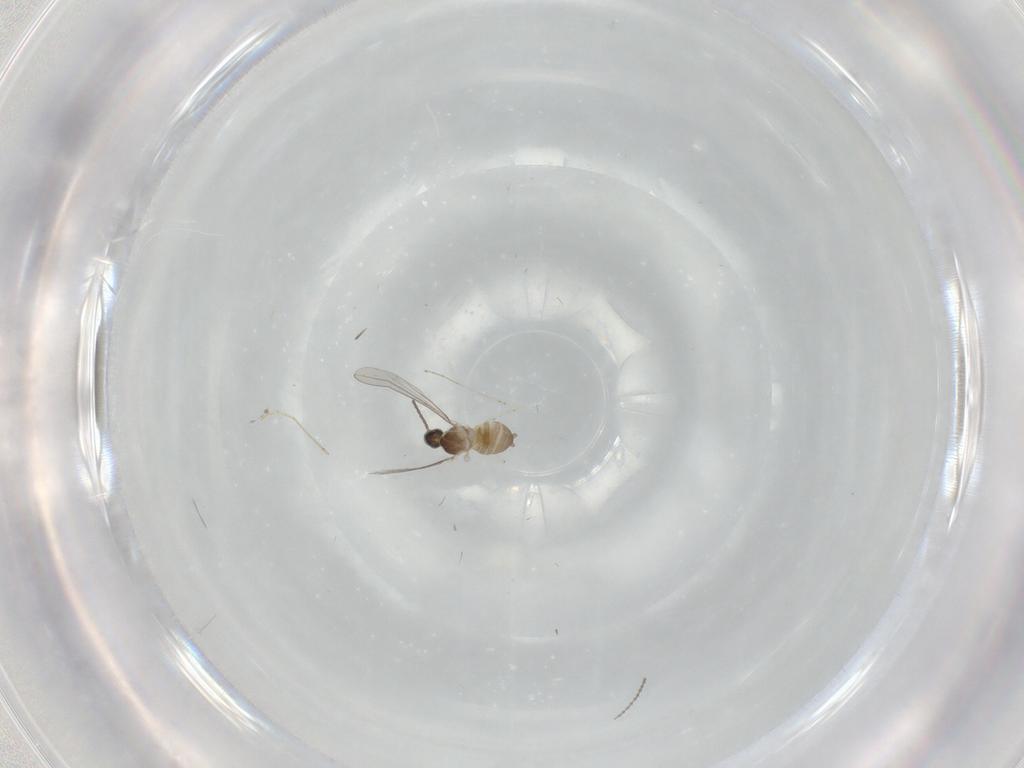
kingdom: Animalia
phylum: Arthropoda
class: Insecta
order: Diptera
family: Cecidomyiidae
